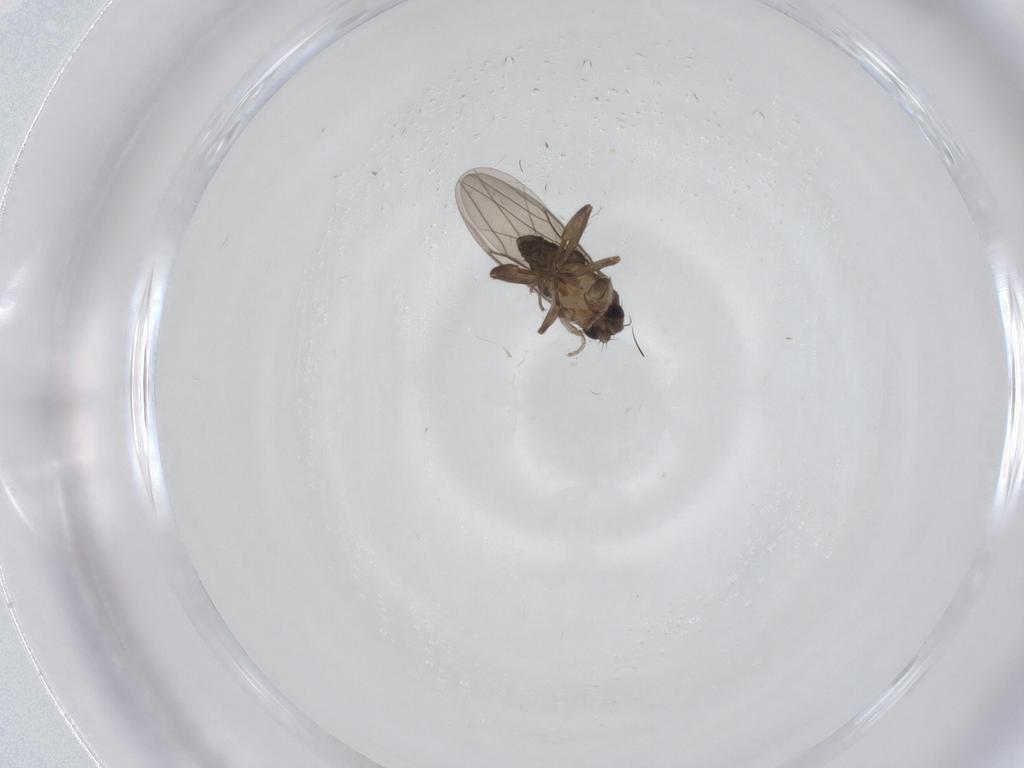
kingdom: Animalia
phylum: Arthropoda
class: Insecta
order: Diptera
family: Phoridae
